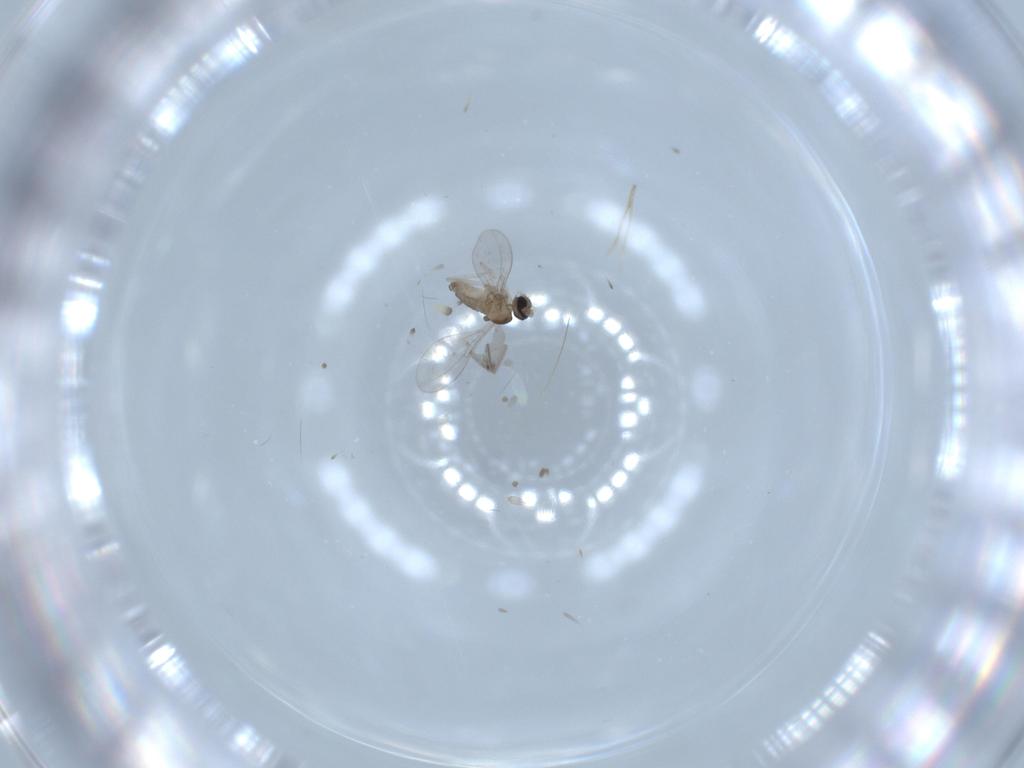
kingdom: Animalia
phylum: Arthropoda
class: Insecta
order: Diptera
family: Cecidomyiidae
